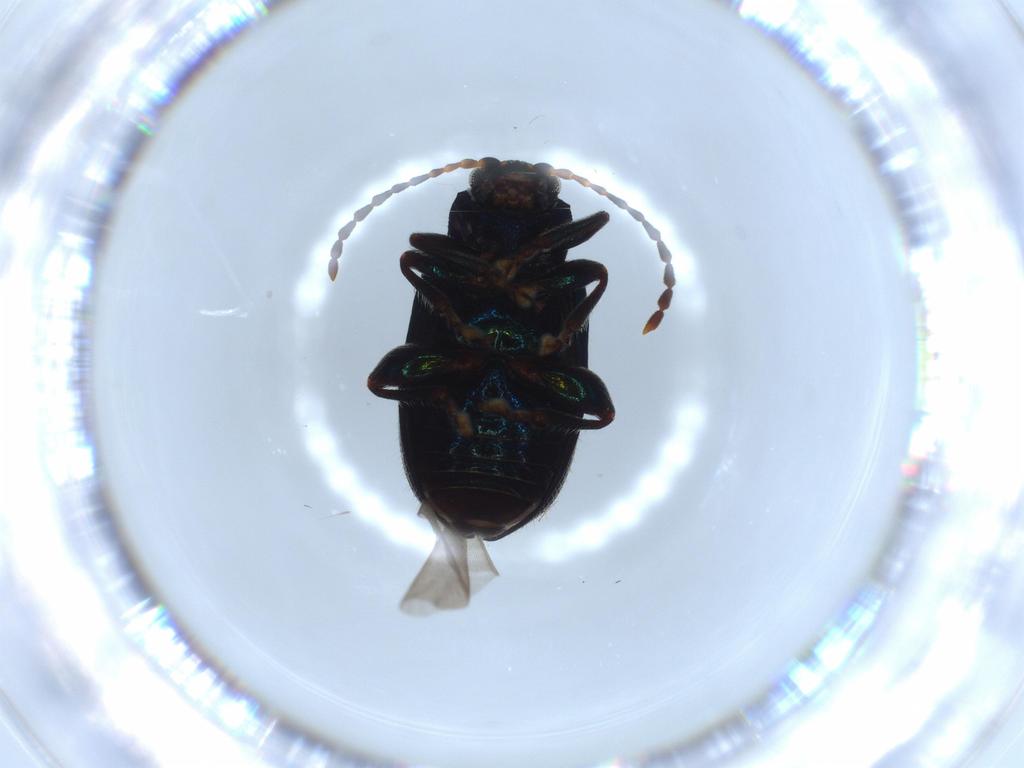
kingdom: Animalia
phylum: Arthropoda
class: Insecta
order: Coleoptera
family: Chrysomelidae
